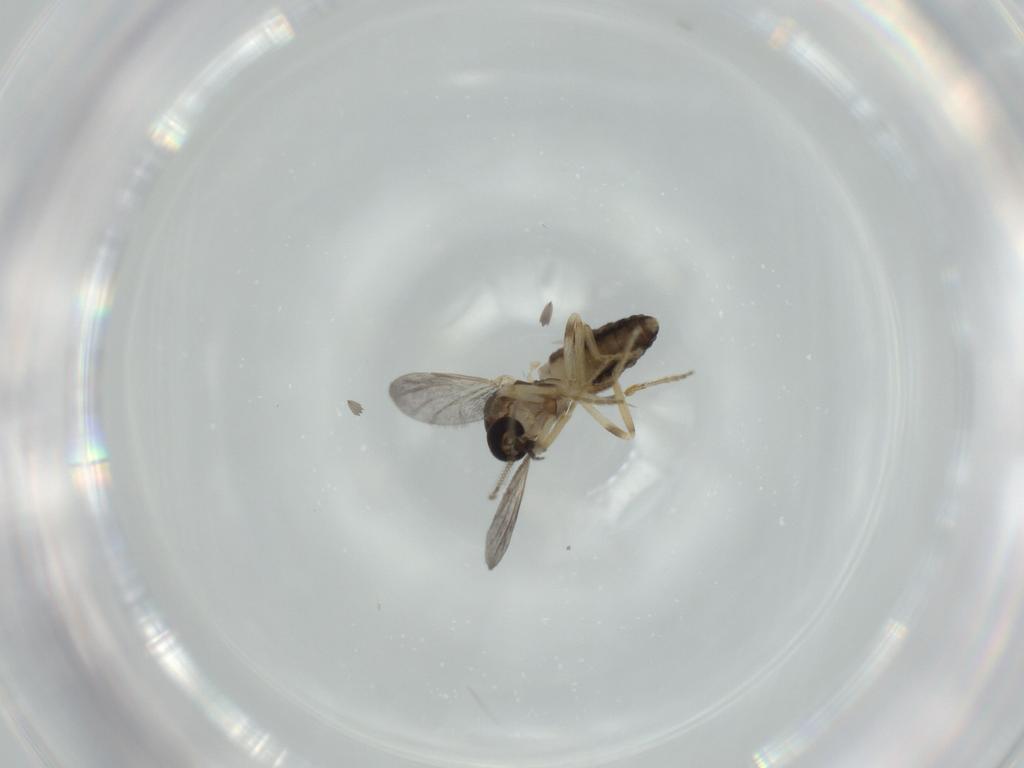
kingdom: Animalia
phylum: Arthropoda
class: Insecta
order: Diptera
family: Ceratopogonidae
